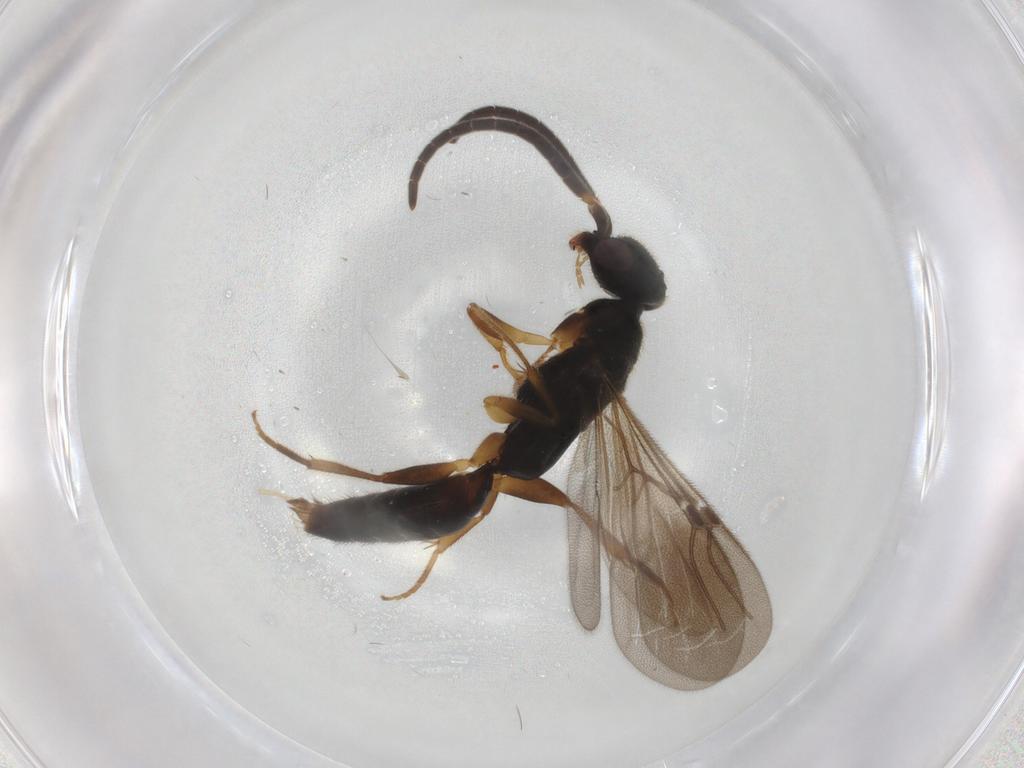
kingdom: Animalia
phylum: Arthropoda
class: Insecta
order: Hymenoptera
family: Bethylidae
